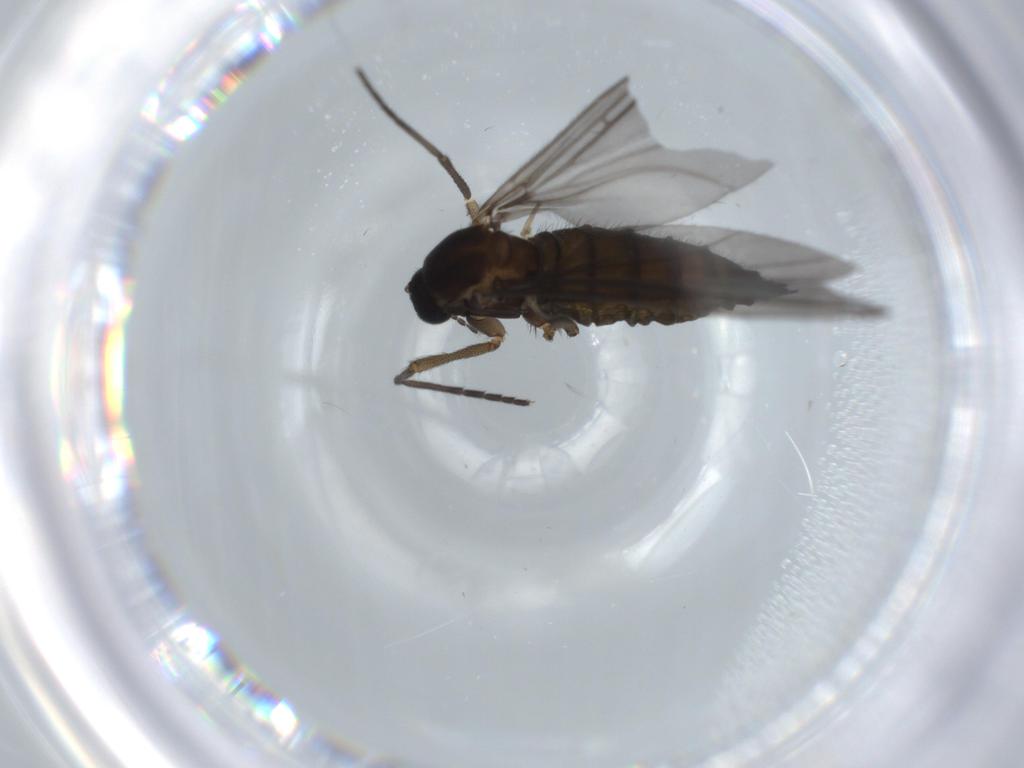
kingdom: Animalia
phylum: Arthropoda
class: Insecta
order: Diptera
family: Sciaridae
